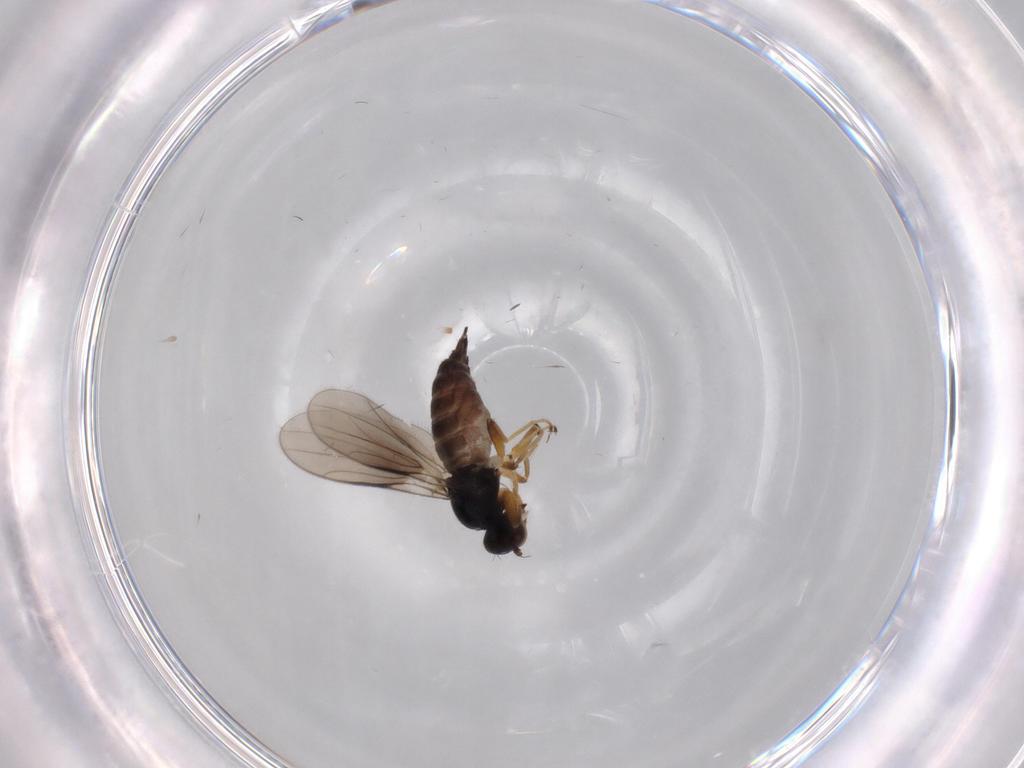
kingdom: Animalia
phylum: Arthropoda
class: Insecta
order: Diptera
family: Hybotidae
